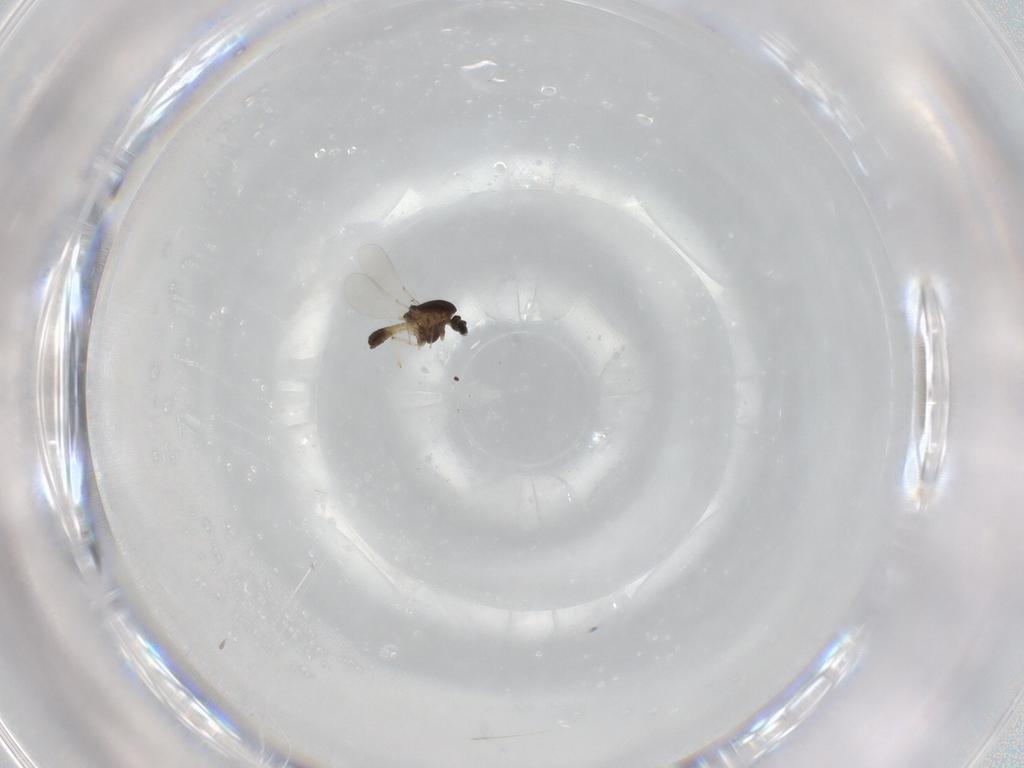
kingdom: Animalia
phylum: Arthropoda
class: Insecta
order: Diptera
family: Chironomidae
